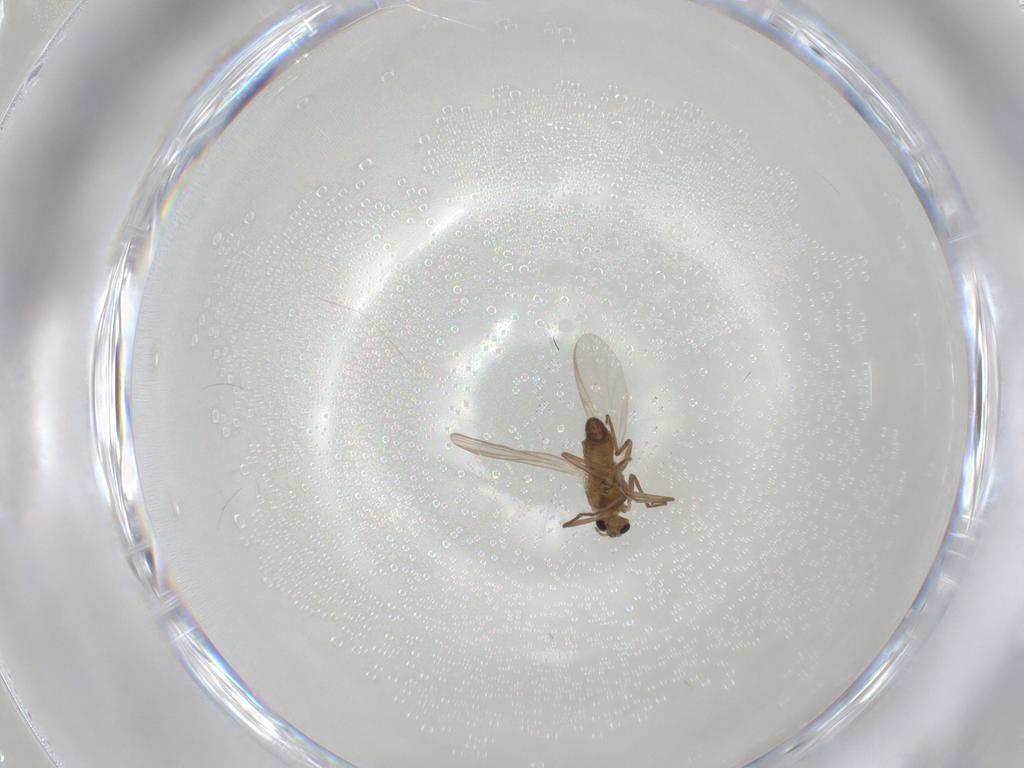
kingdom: Animalia
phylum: Arthropoda
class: Insecta
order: Diptera
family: Chironomidae
